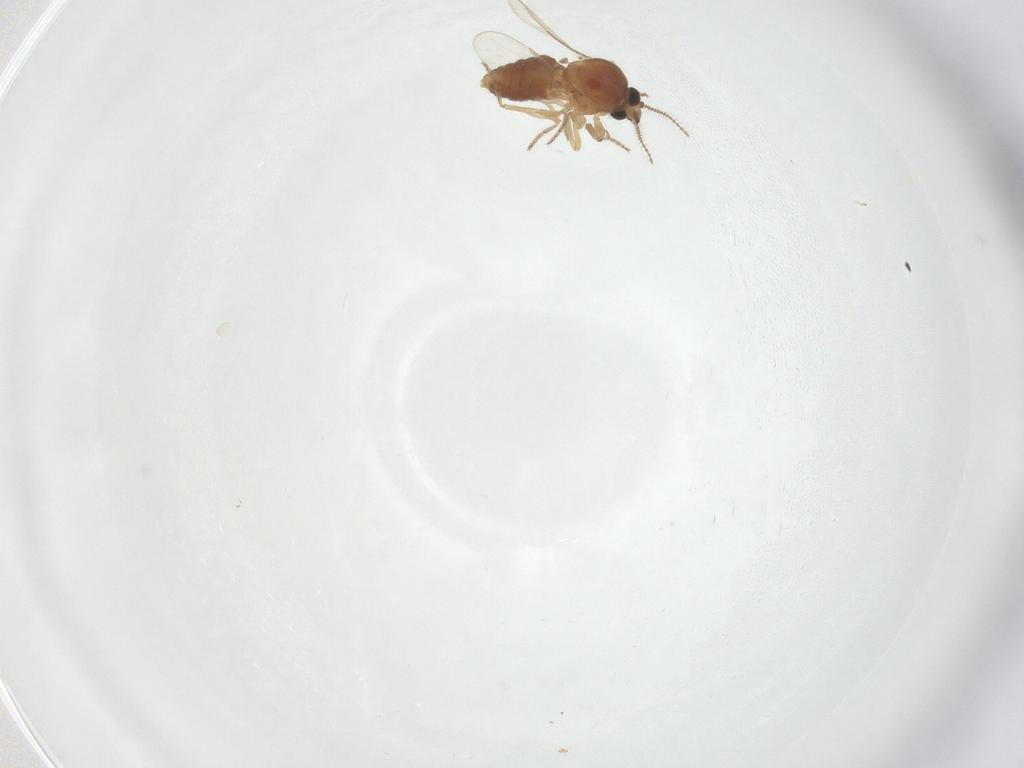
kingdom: Animalia
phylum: Arthropoda
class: Insecta
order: Diptera
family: Ceratopogonidae
